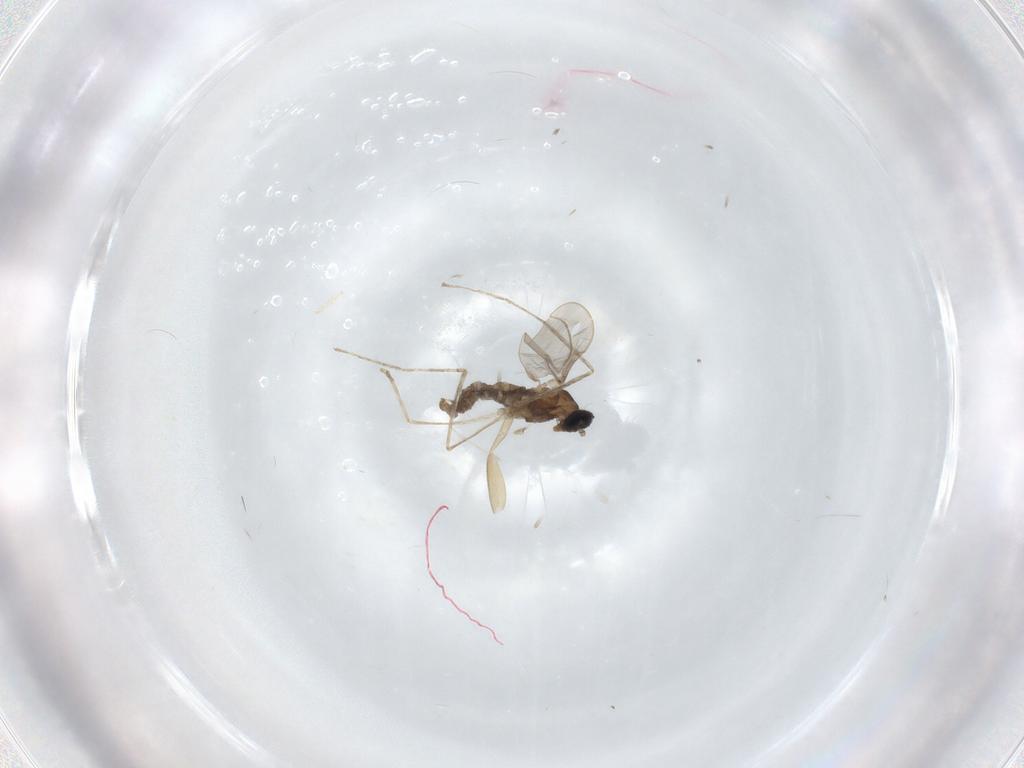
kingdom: Animalia
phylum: Arthropoda
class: Insecta
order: Diptera
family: Cecidomyiidae
